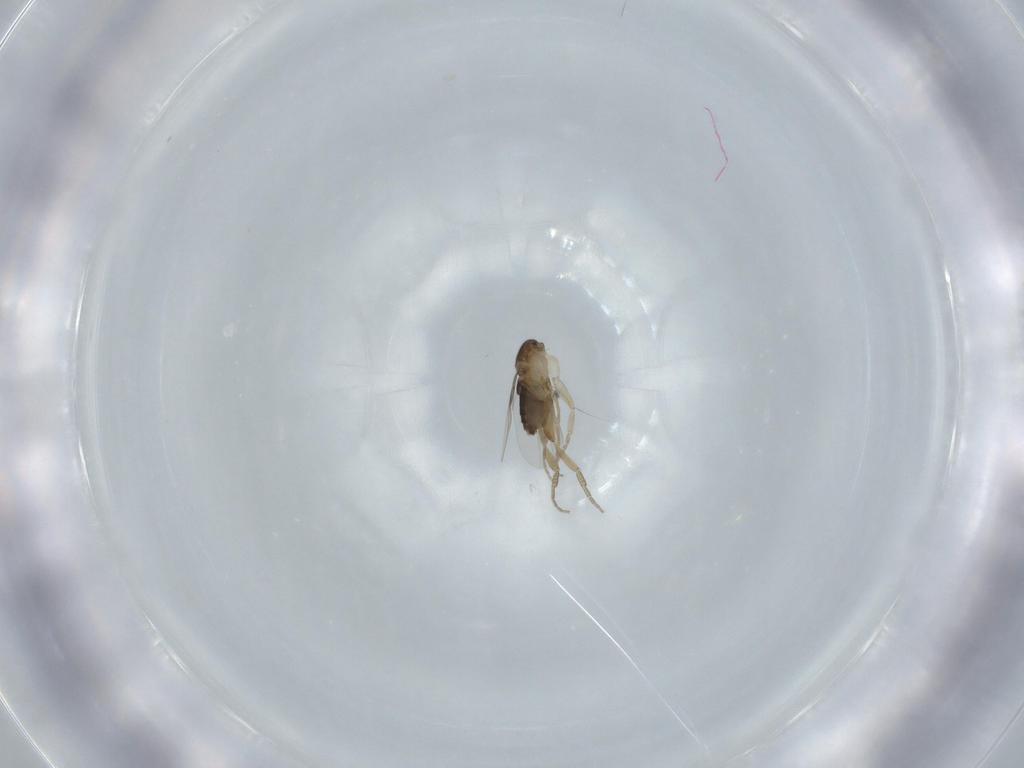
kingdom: Animalia
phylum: Arthropoda
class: Insecta
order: Diptera
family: Phoridae
